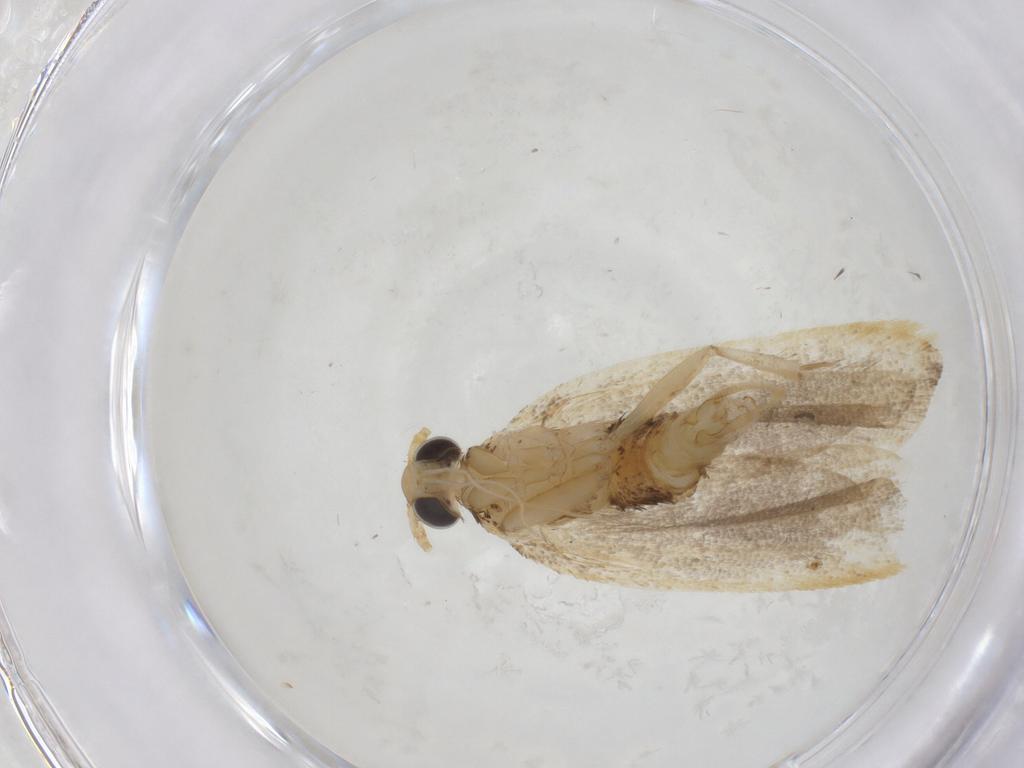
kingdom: Animalia
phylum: Arthropoda
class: Insecta
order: Lepidoptera
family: Lecithoceridae
